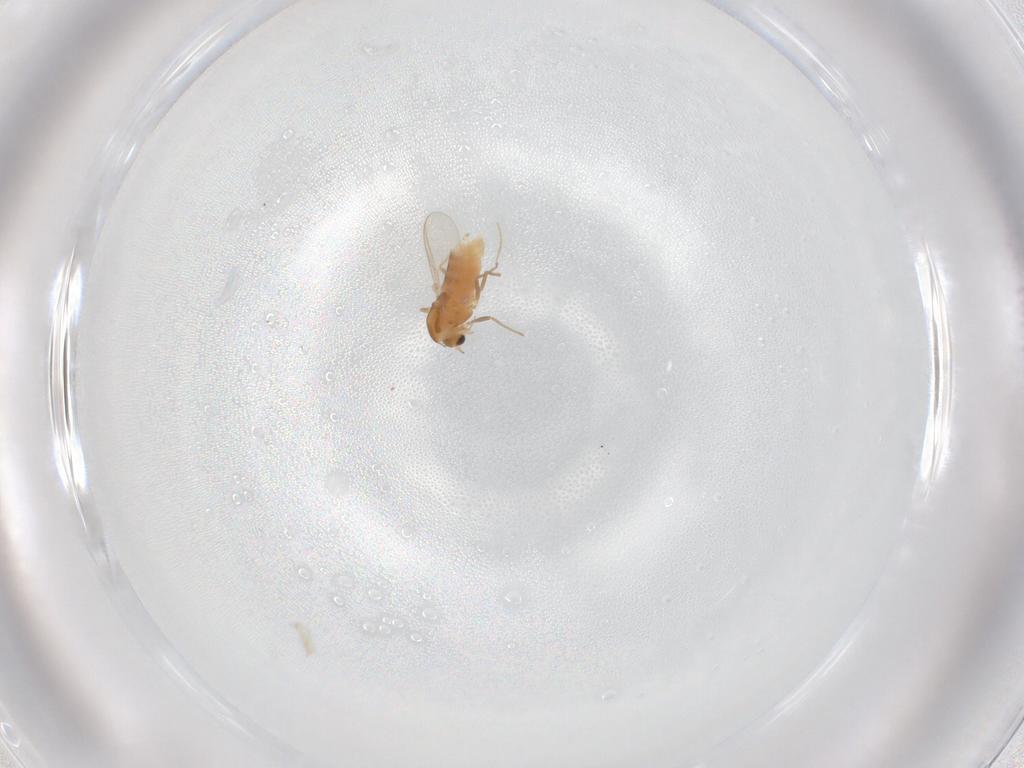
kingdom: Animalia
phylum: Arthropoda
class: Insecta
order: Diptera
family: Chironomidae
